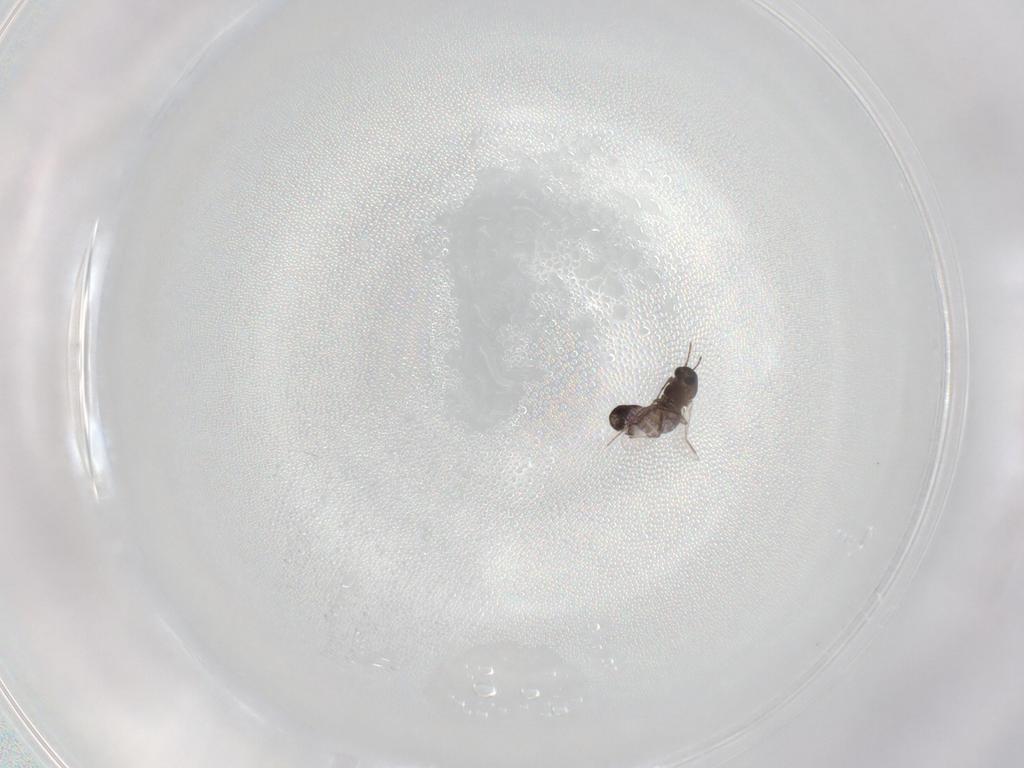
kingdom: Animalia
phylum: Arthropoda
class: Insecta
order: Diptera
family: Chironomidae
